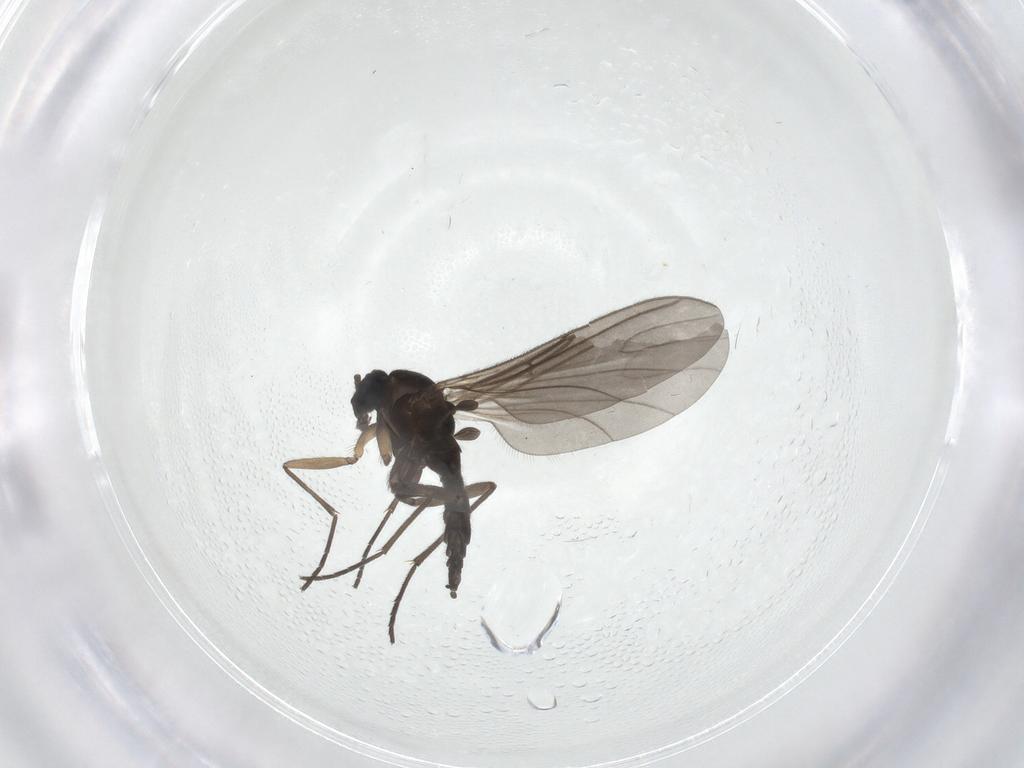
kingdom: Animalia
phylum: Arthropoda
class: Insecta
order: Diptera
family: Sciaridae
